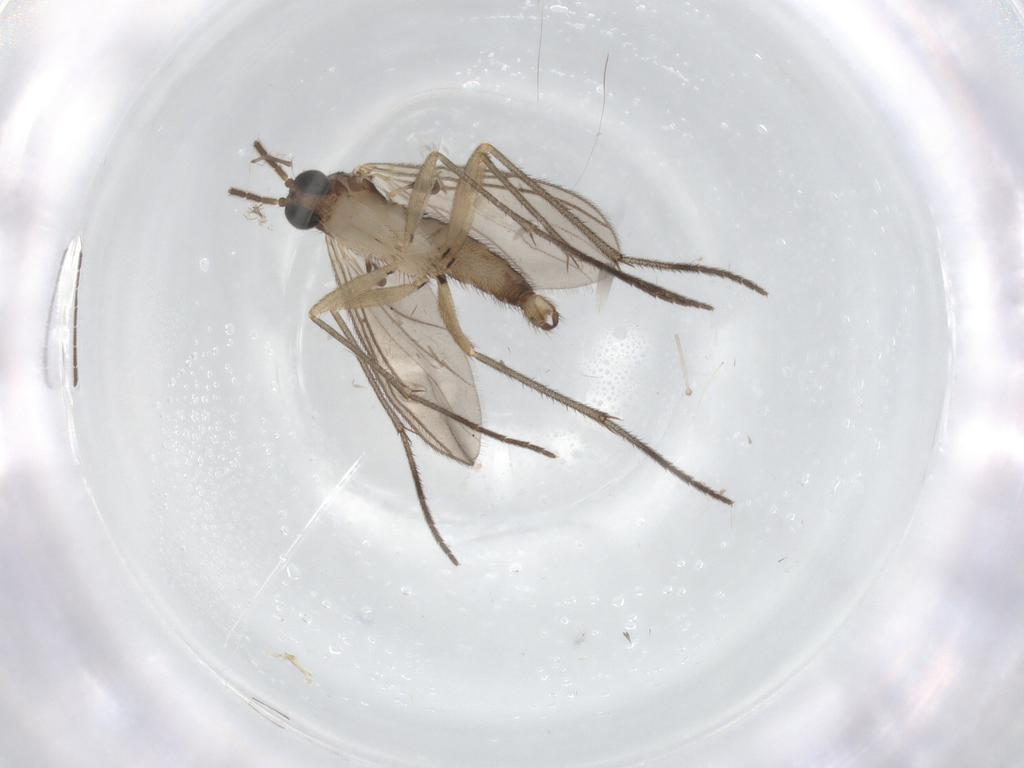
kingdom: Animalia
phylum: Arthropoda
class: Insecta
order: Diptera
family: Sciaridae
